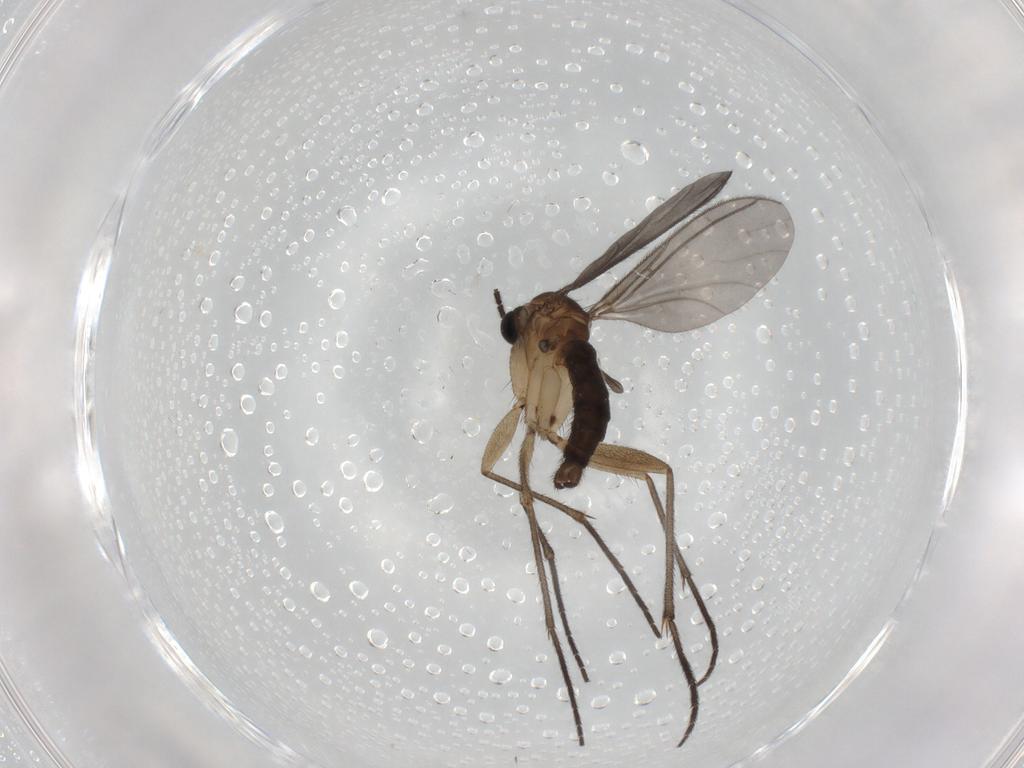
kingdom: Animalia
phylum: Arthropoda
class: Insecta
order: Diptera
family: Sciaridae
